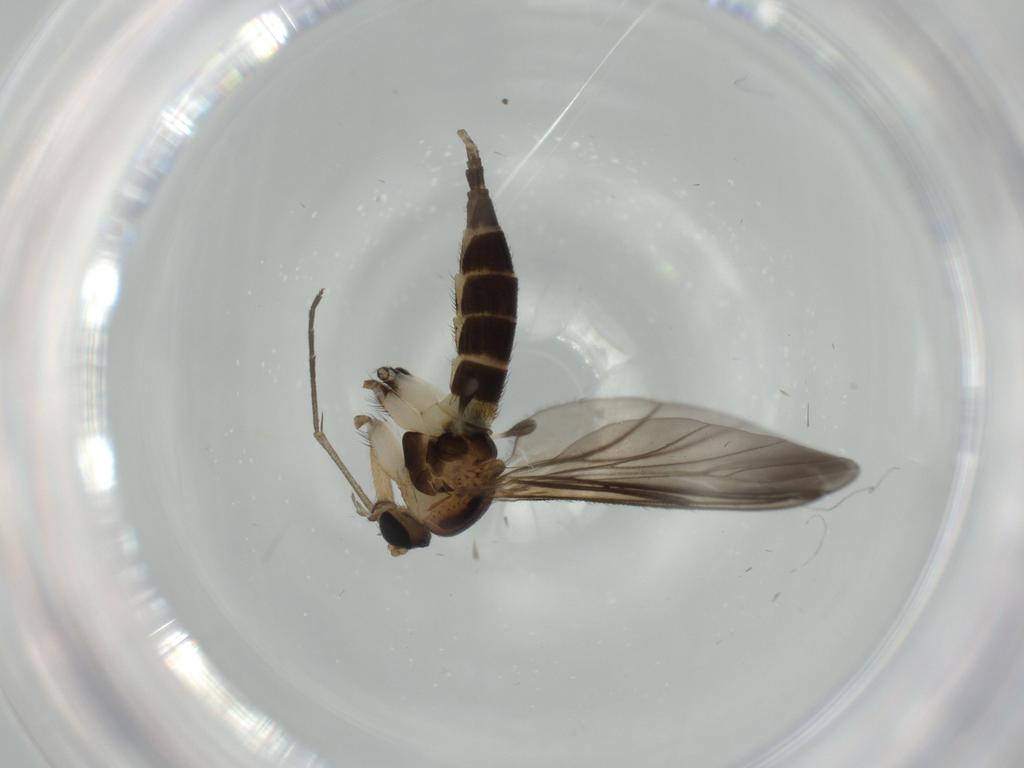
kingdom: Animalia
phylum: Arthropoda
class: Insecta
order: Diptera
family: Sciaridae
